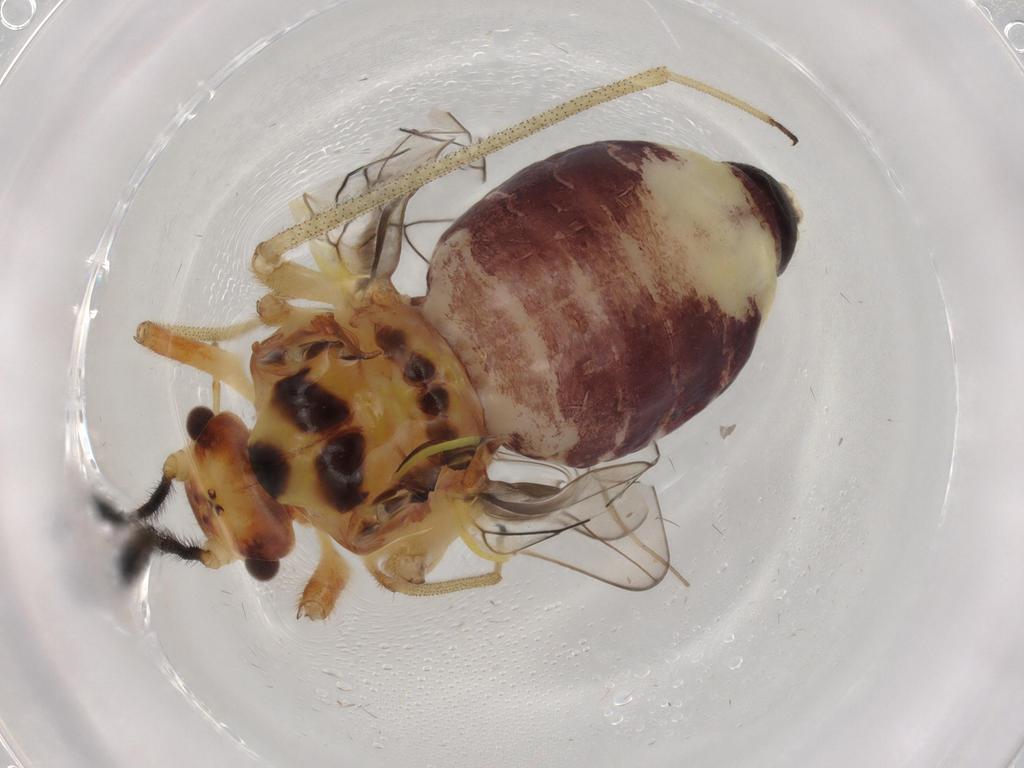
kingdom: Animalia
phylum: Arthropoda
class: Insecta
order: Psocodea
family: Psocidae
